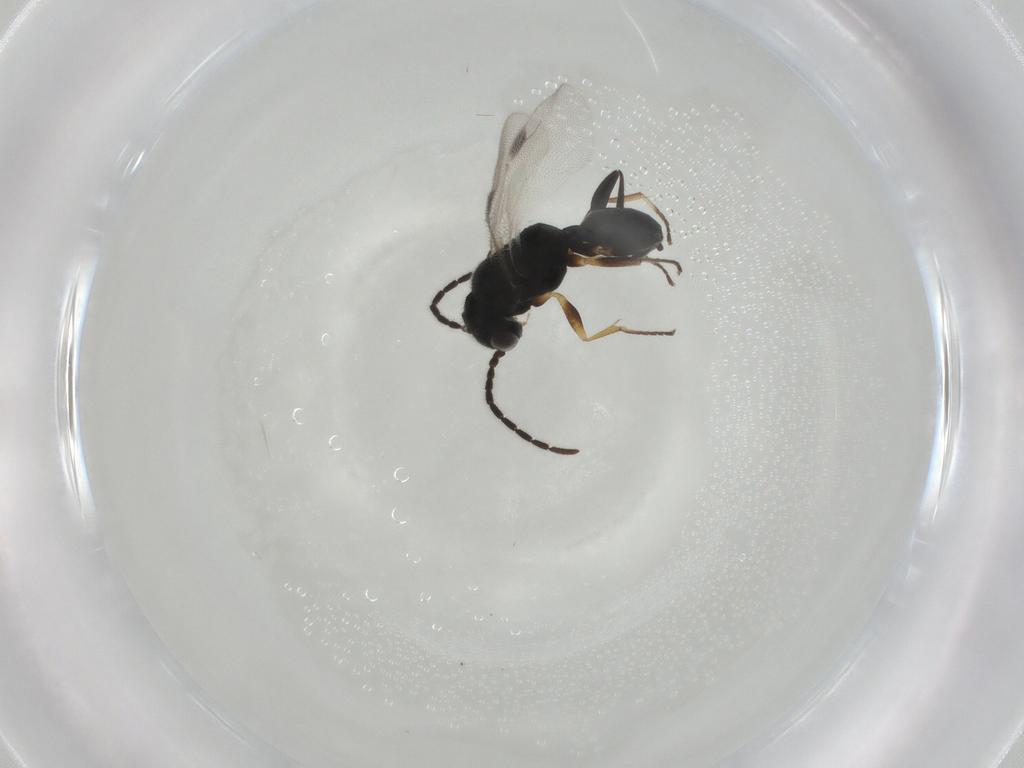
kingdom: Animalia
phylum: Arthropoda
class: Insecta
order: Hymenoptera
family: Dryinidae
